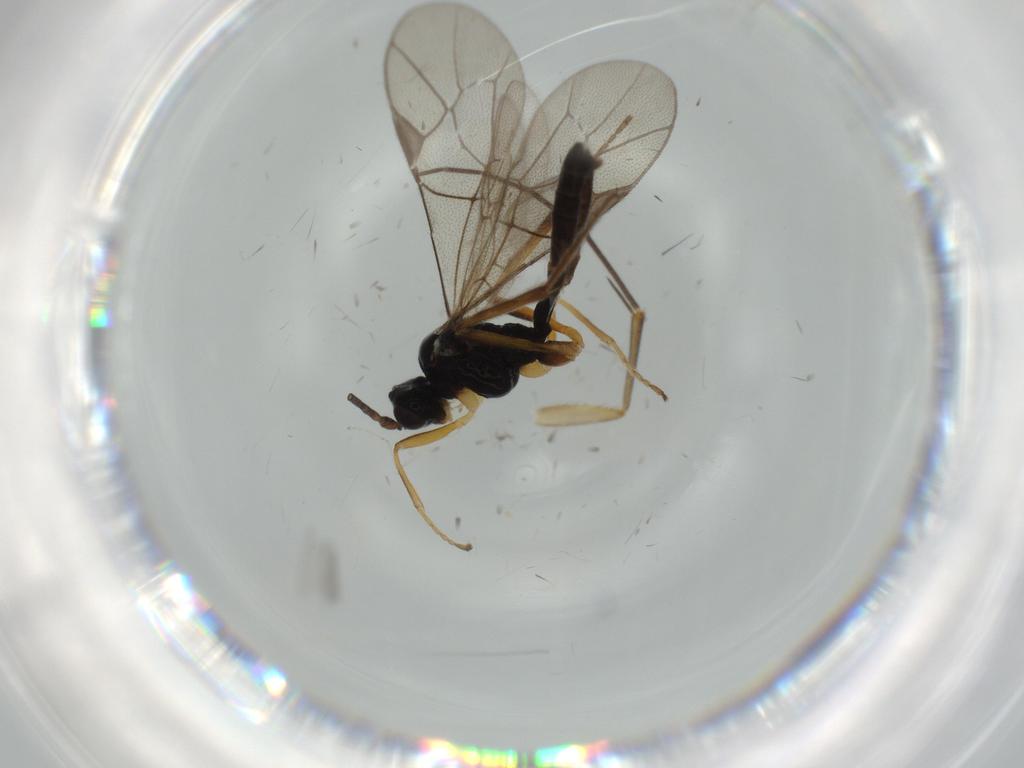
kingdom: Animalia
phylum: Arthropoda
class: Insecta
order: Hymenoptera
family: Ichneumonidae
